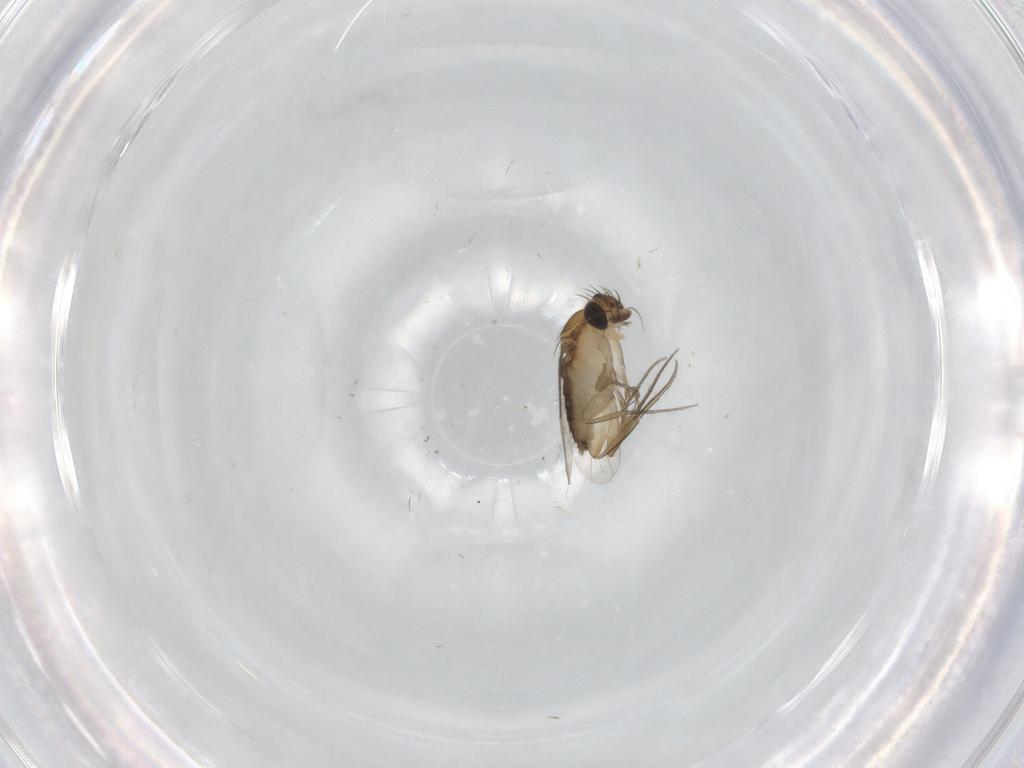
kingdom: Animalia
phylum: Arthropoda
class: Insecta
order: Diptera
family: Phoridae
